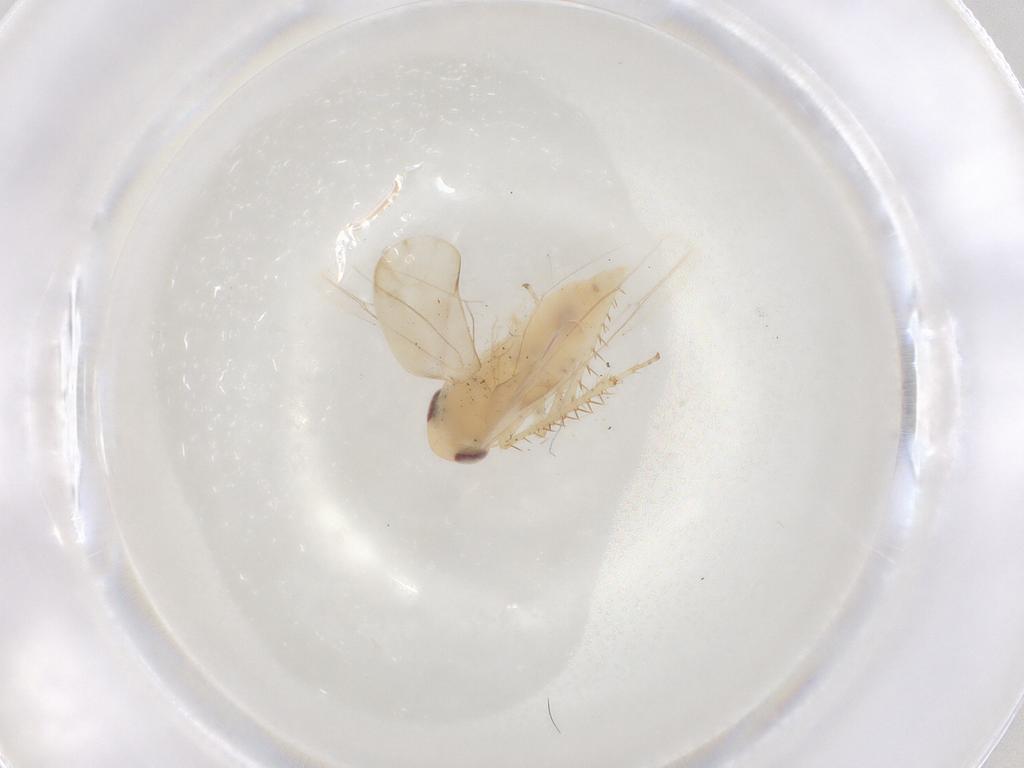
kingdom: Animalia
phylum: Arthropoda
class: Insecta
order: Hemiptera
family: Cicadellidae
